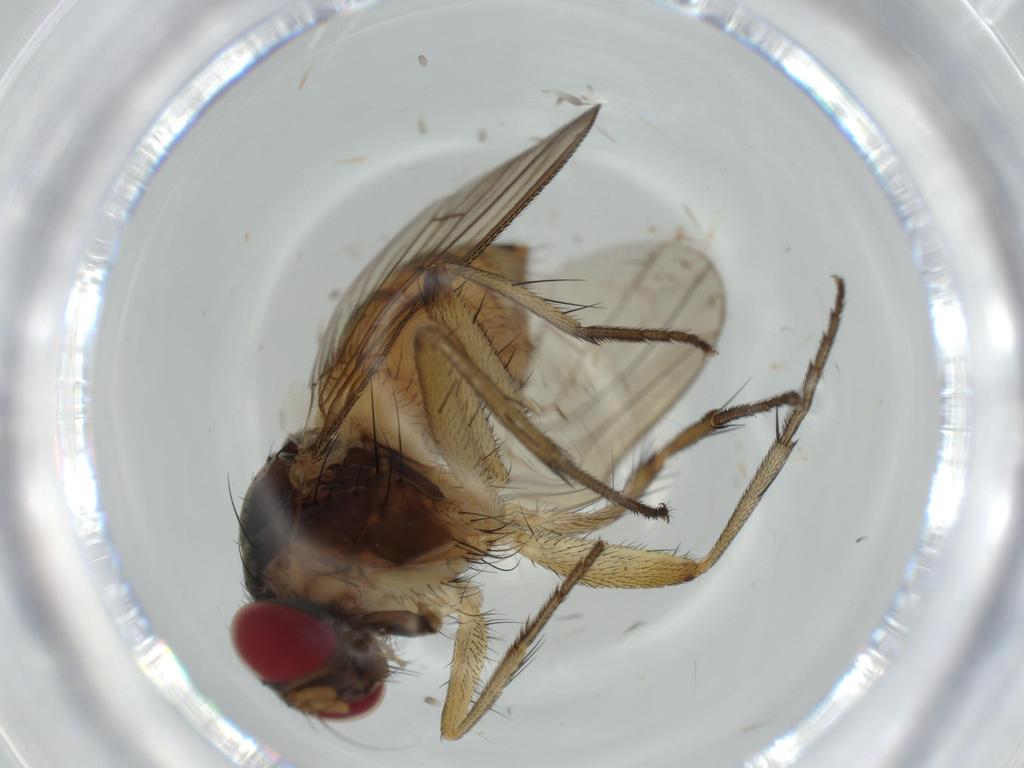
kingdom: Animalia
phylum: Arthropoda
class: Insecta
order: Diptera
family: Muscidae
